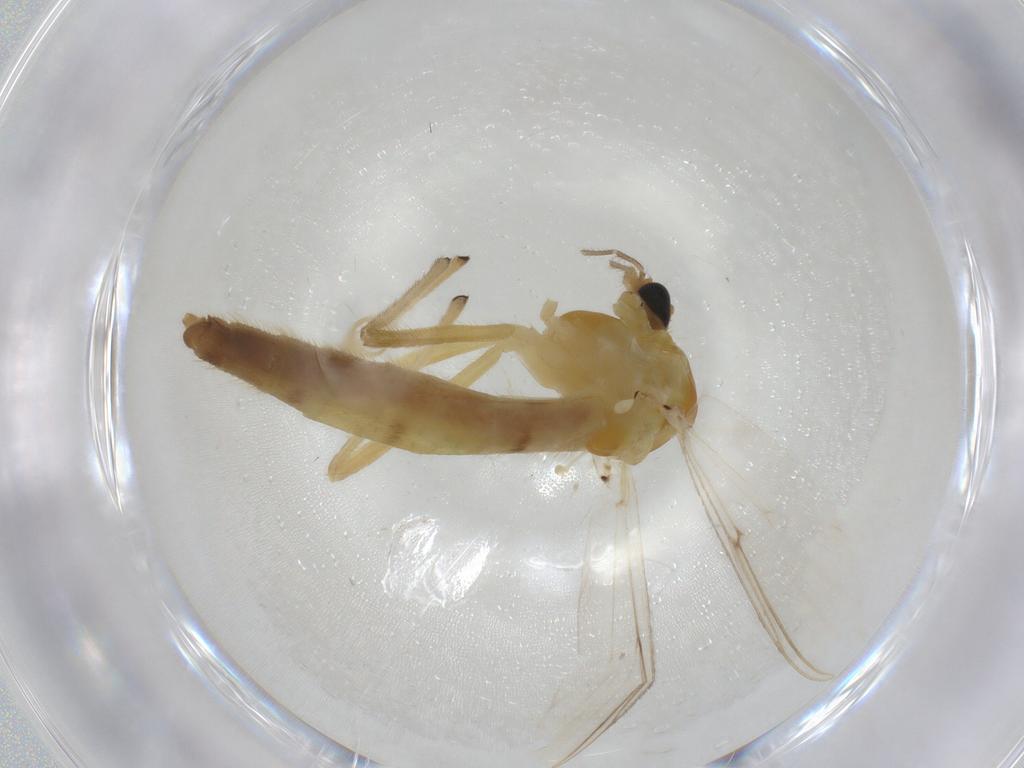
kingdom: Animalia
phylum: Arthropoda
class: Insecta
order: Diptera
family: Chironomidae
